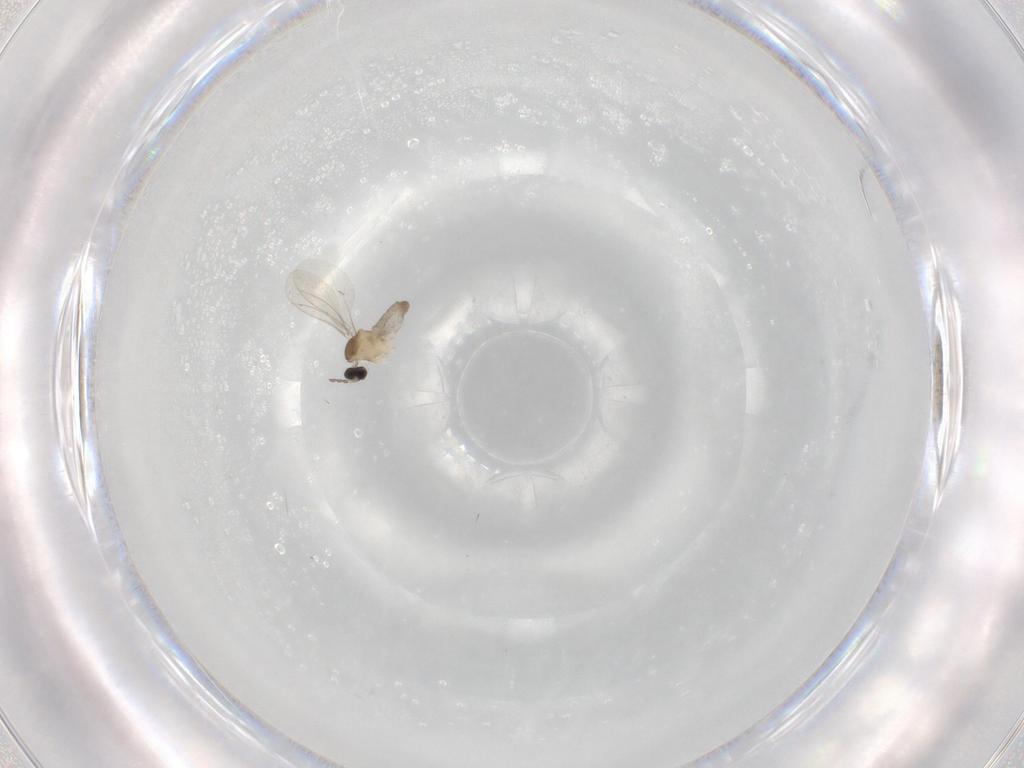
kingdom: Animalia
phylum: Arthropoda
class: Insecta
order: Diptera
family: Cecidomyiidae
